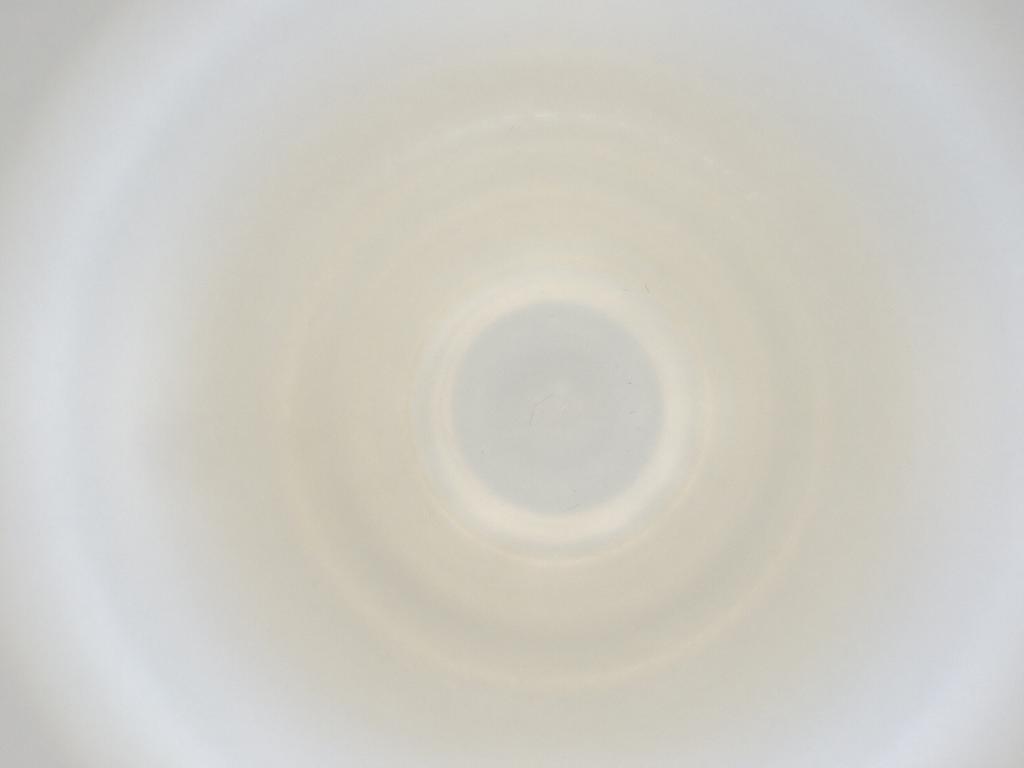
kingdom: Animalia
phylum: Arthropoda
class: Insecta
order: Diptera
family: Cecidomyiidae
